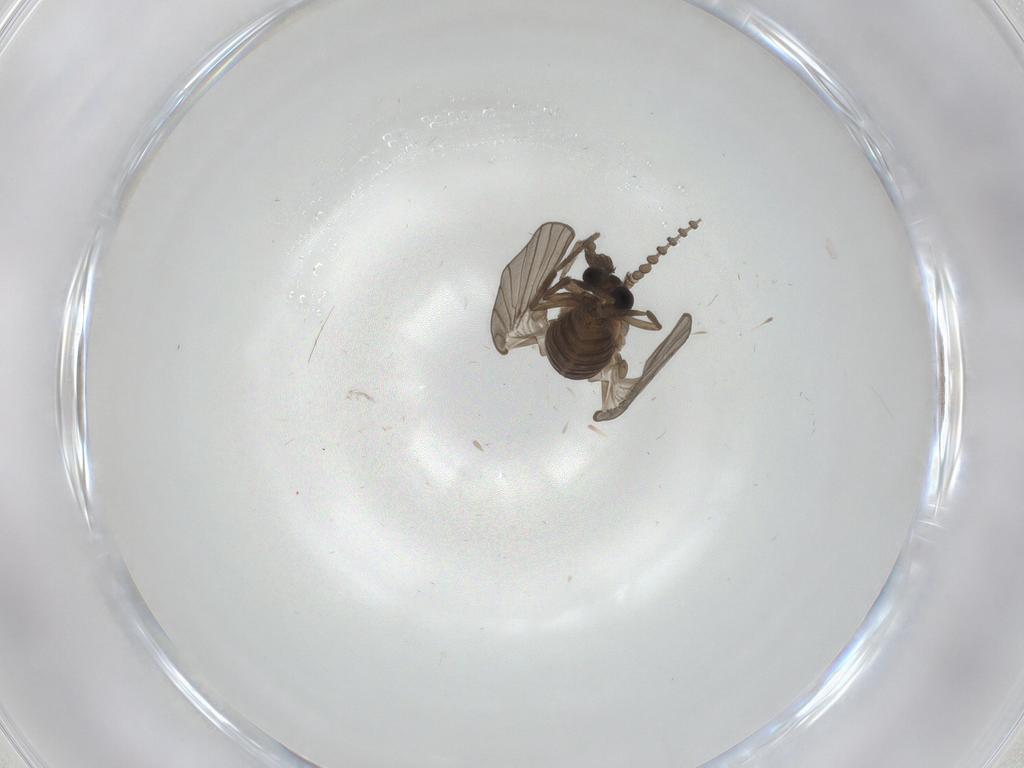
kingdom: Animalia
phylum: Arthropoda
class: Insecta
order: Diptera
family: Psychodidae
